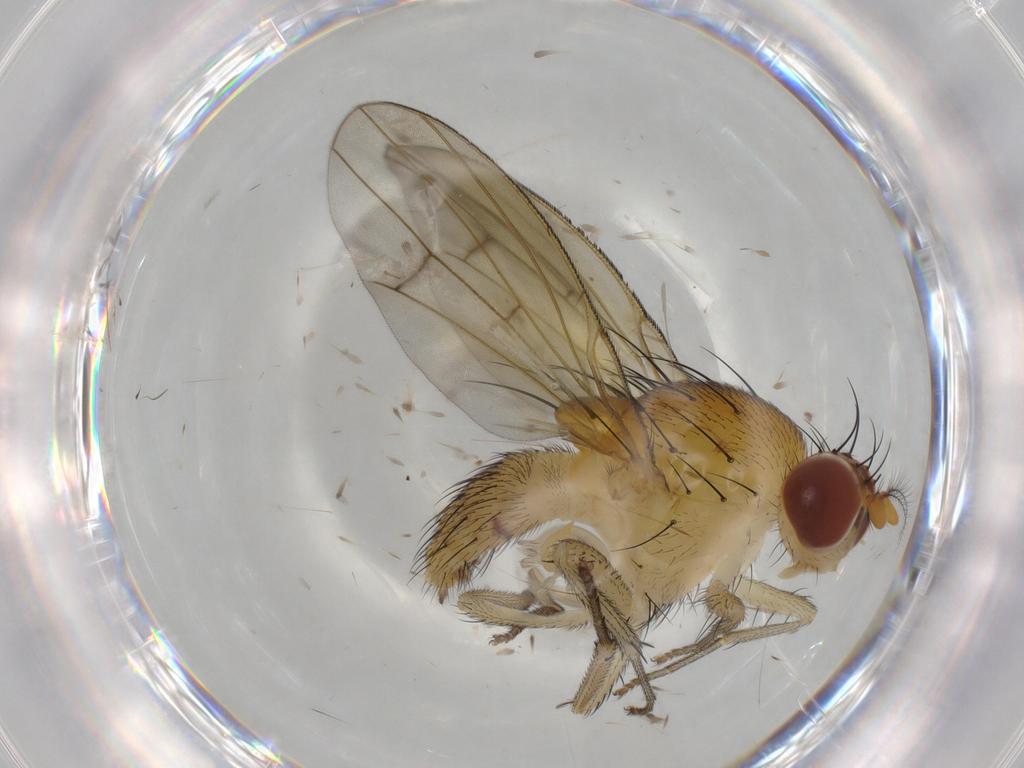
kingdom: Animalia
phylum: Arthropoda
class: Insecta
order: Diptera
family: Lauxaniidae
